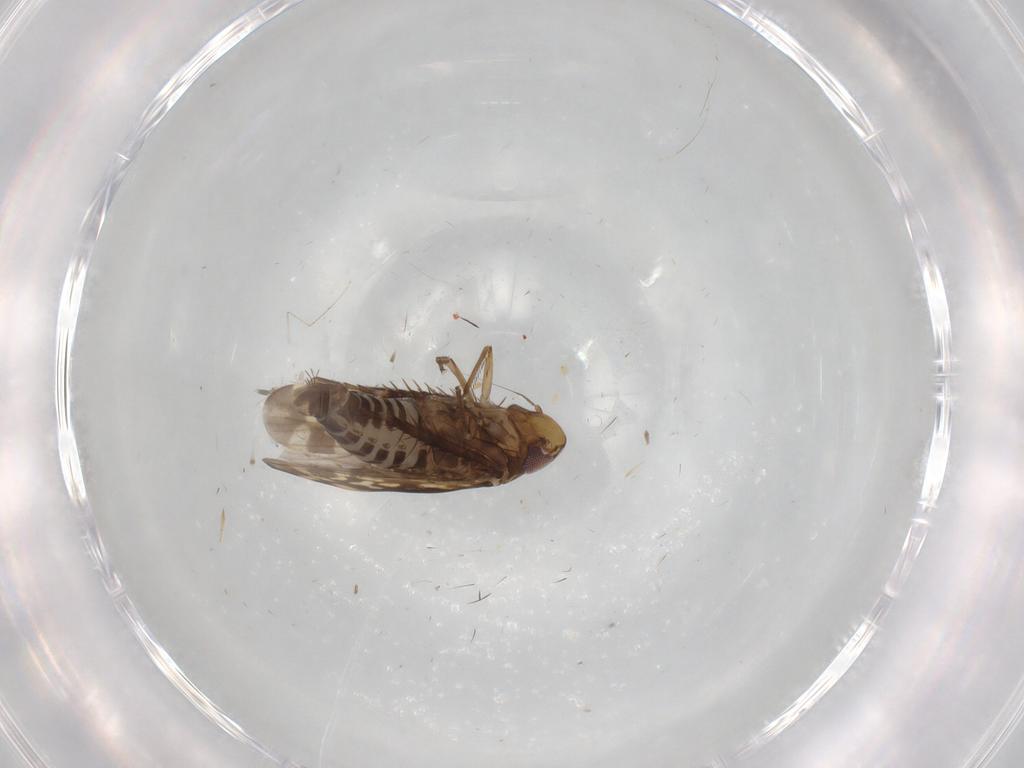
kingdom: Animalia
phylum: Arthropoda
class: Insecta
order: Hemiptera
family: Cicadellidae
